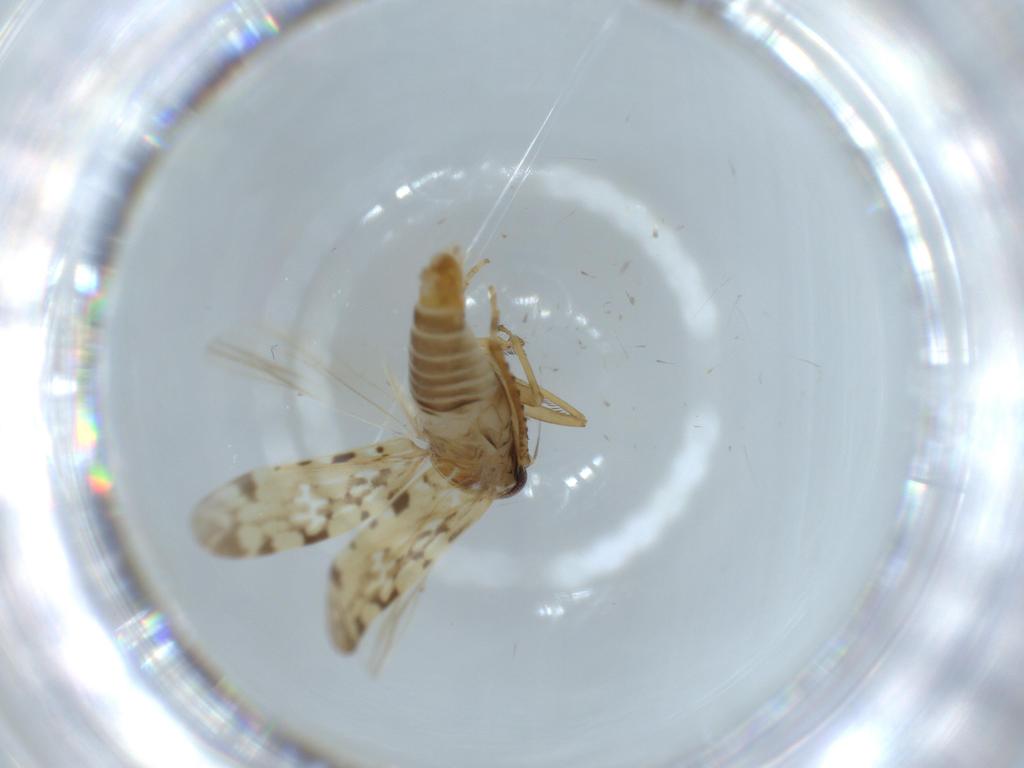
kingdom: Animalia
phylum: Arthropoda
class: Insecta
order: Hemiptera
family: Cicadellidae
